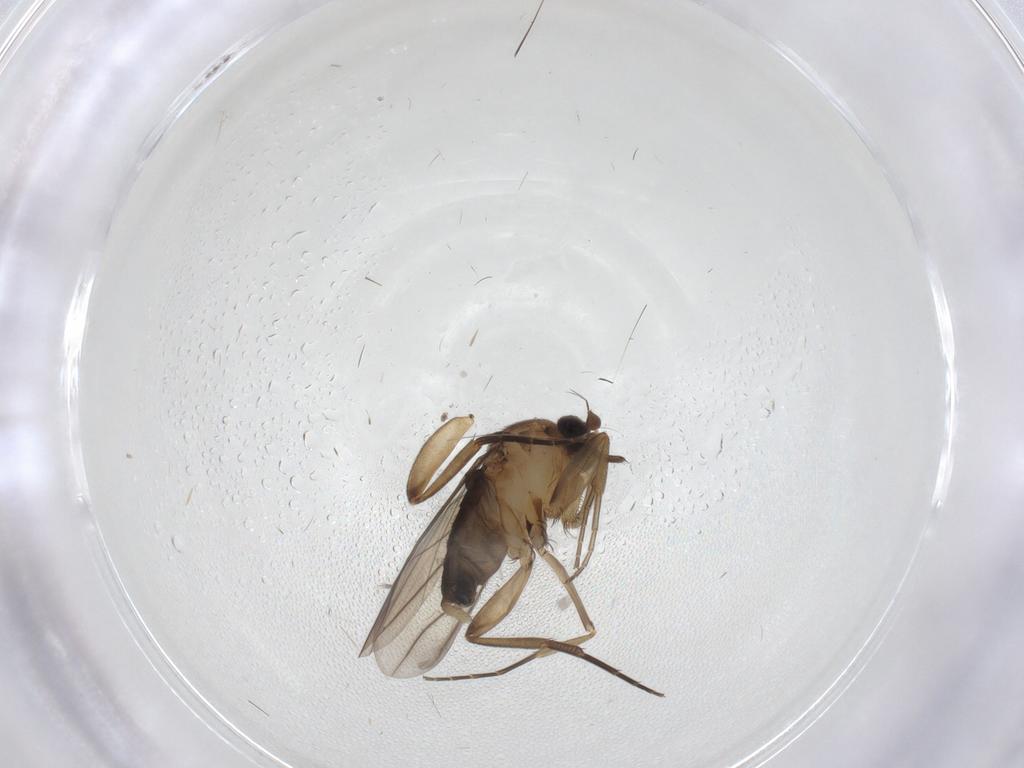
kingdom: Animalia
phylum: Arthropoda
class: Insecta
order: Diptera
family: Phoridae
